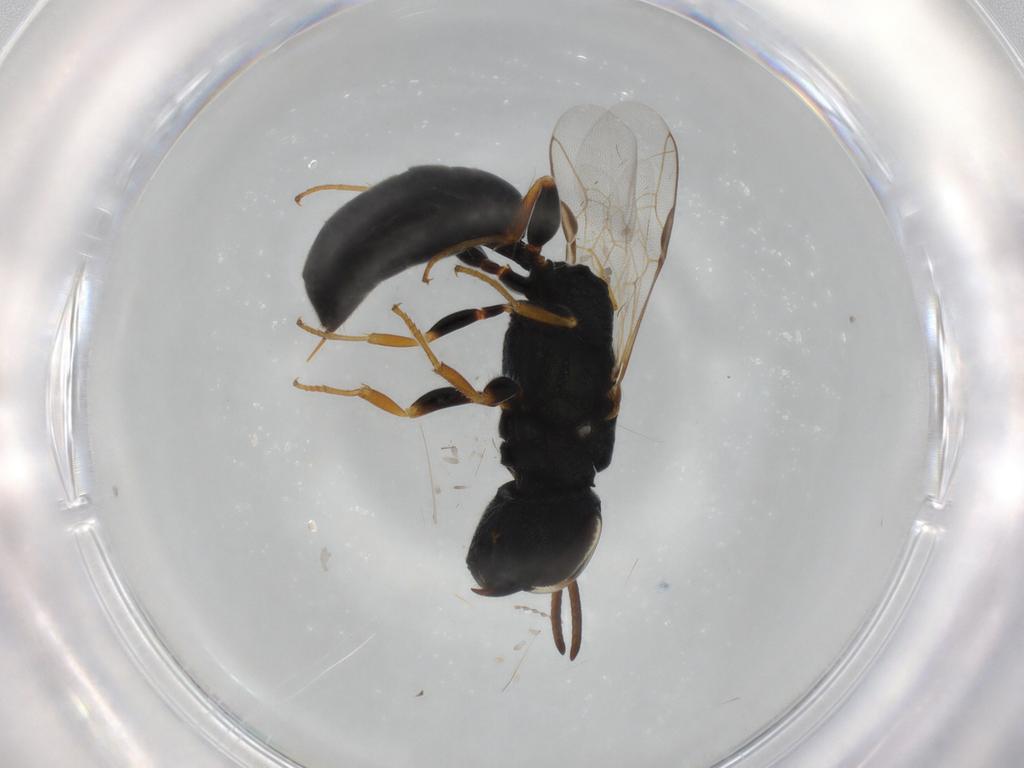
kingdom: Animalia
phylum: Arthropoda
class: Insecta
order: Hymenoptera
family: Crabronidae
